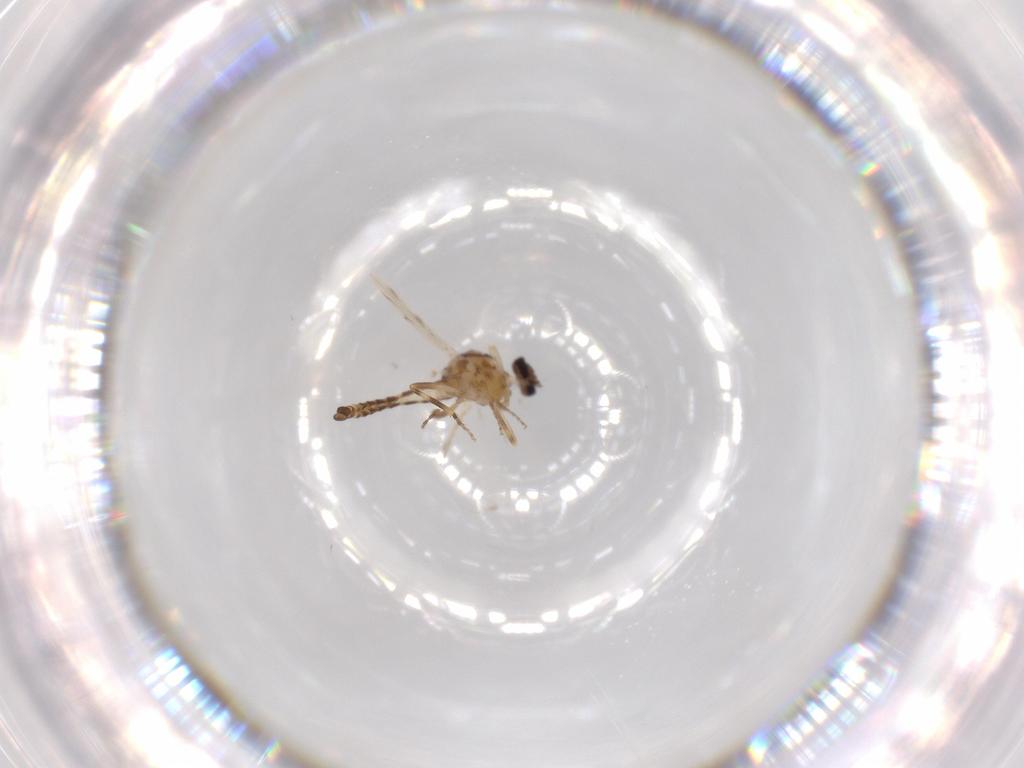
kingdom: Animalia
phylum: Arthropoda
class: Insecta
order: Diptera
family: Ceratopogonidae
